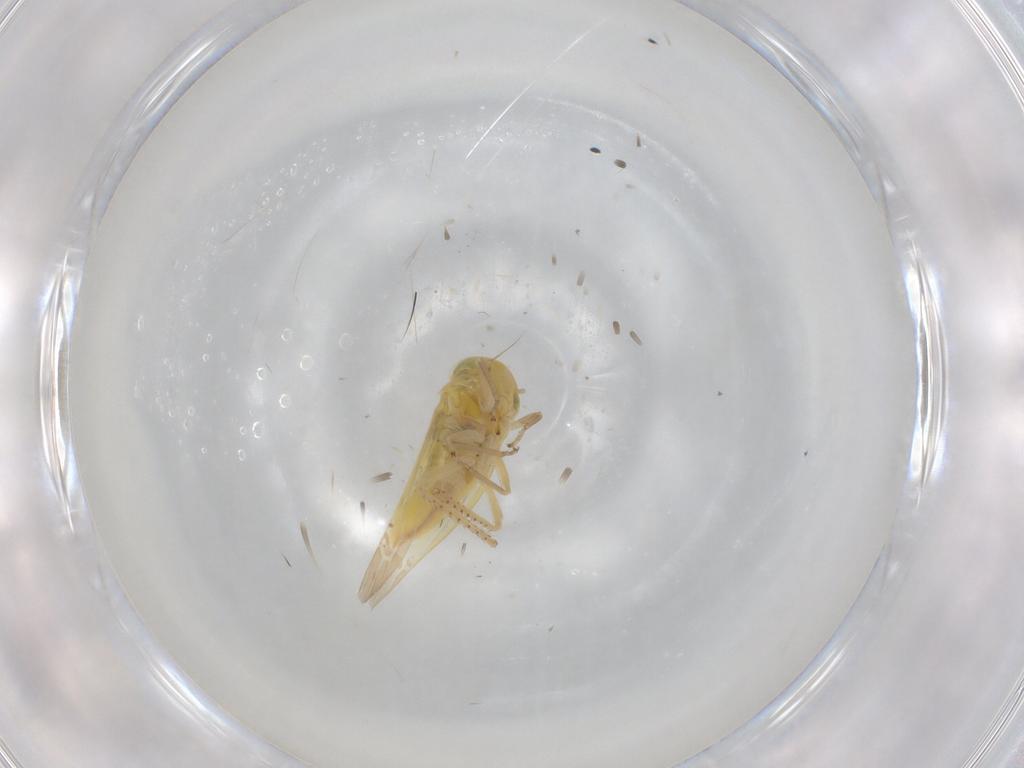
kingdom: Animalia
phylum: Arthropoda
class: Insecta
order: Hemiptera
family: Cicadellidae
